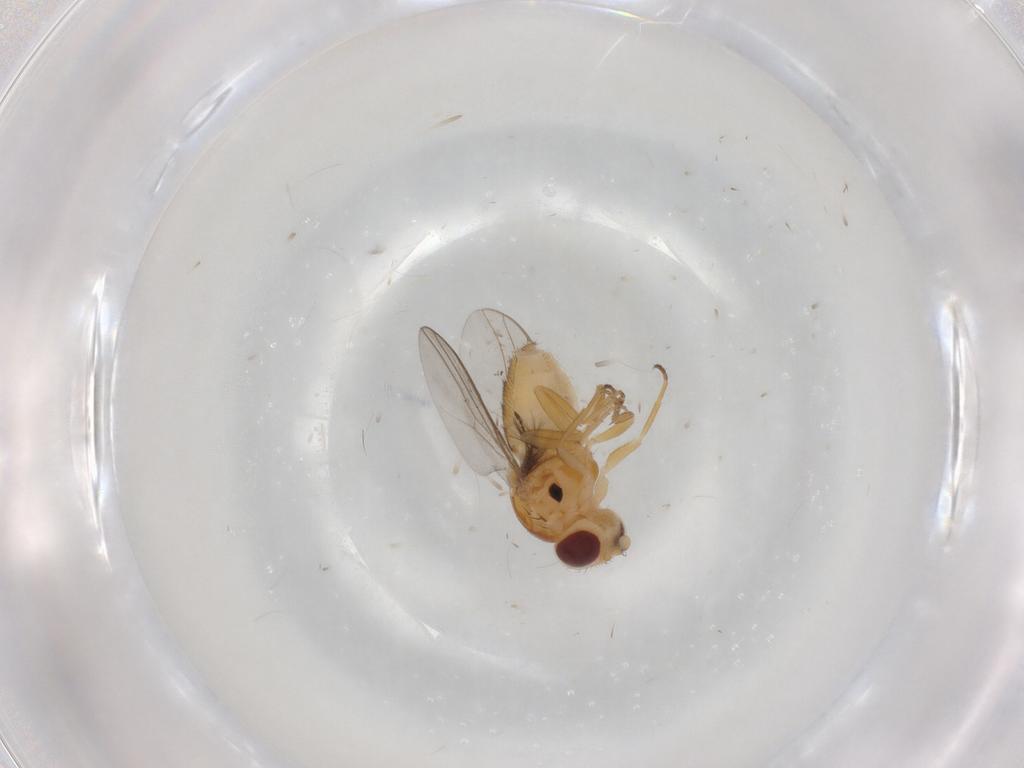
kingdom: Animalia
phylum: Arthropoda
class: Insecta
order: Diptera
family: Chloropidae
